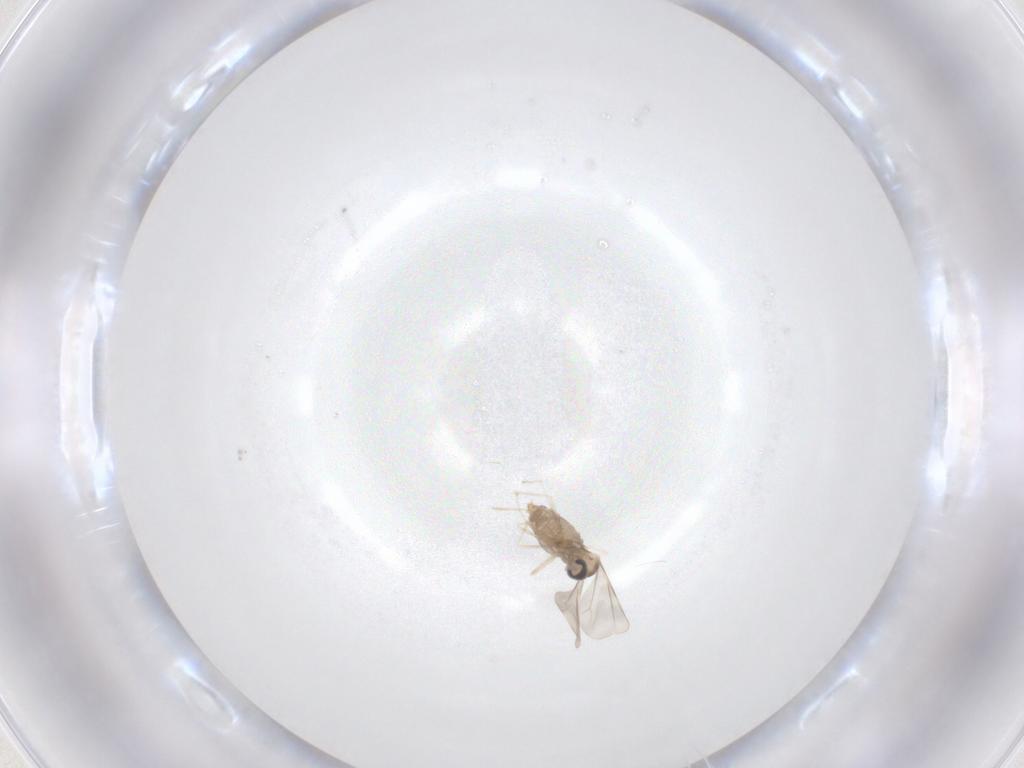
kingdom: Animalia
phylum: Arthropoda
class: Insecta
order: Diptera
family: Cecidomyiidae
